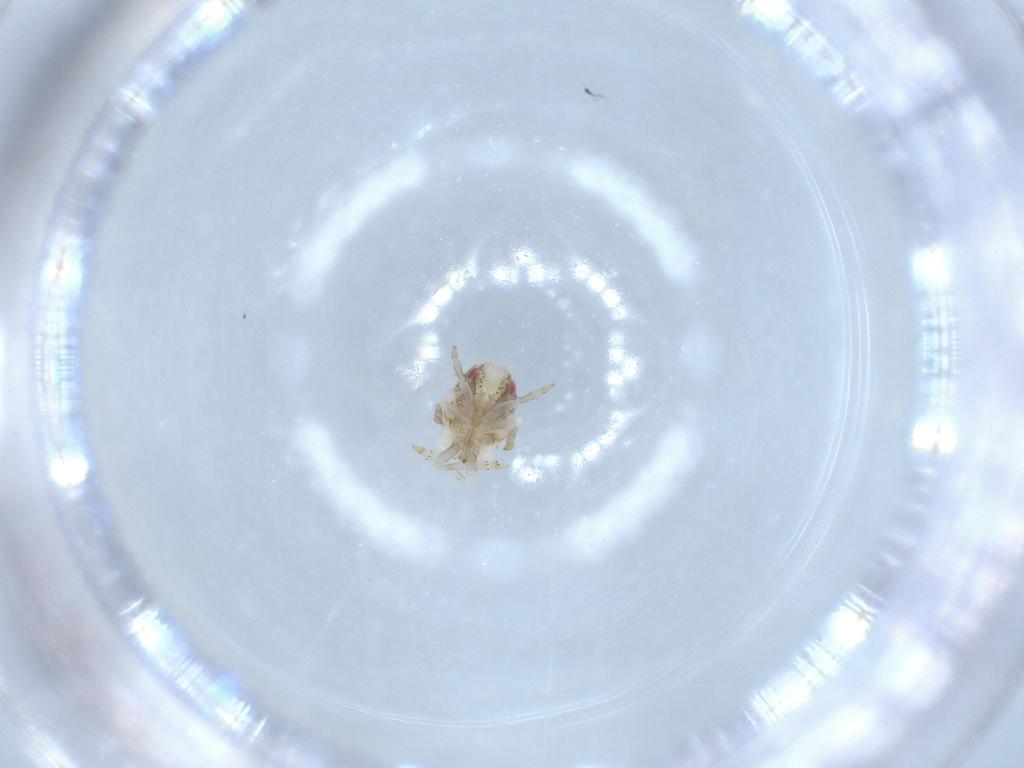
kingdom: Animalia
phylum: Arthropoda
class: Insecta
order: Hemiptera
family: Acanaloniidae
